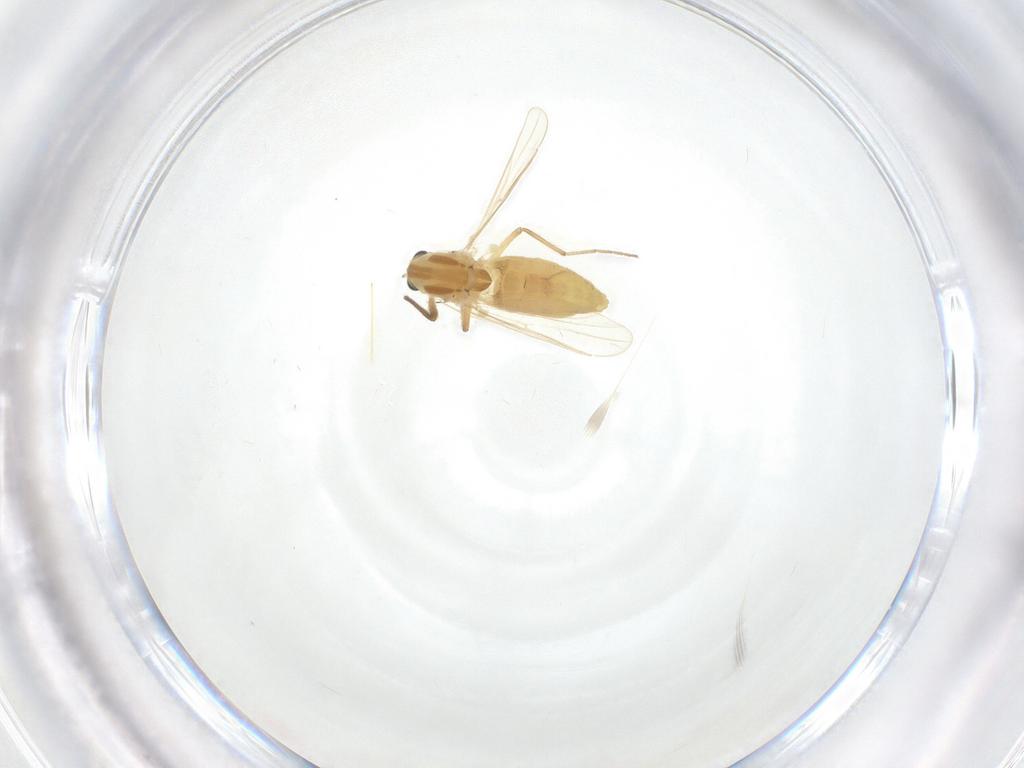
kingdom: Animalia
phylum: Arthropoda
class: Insecta
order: Diptera
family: Chironomidae
